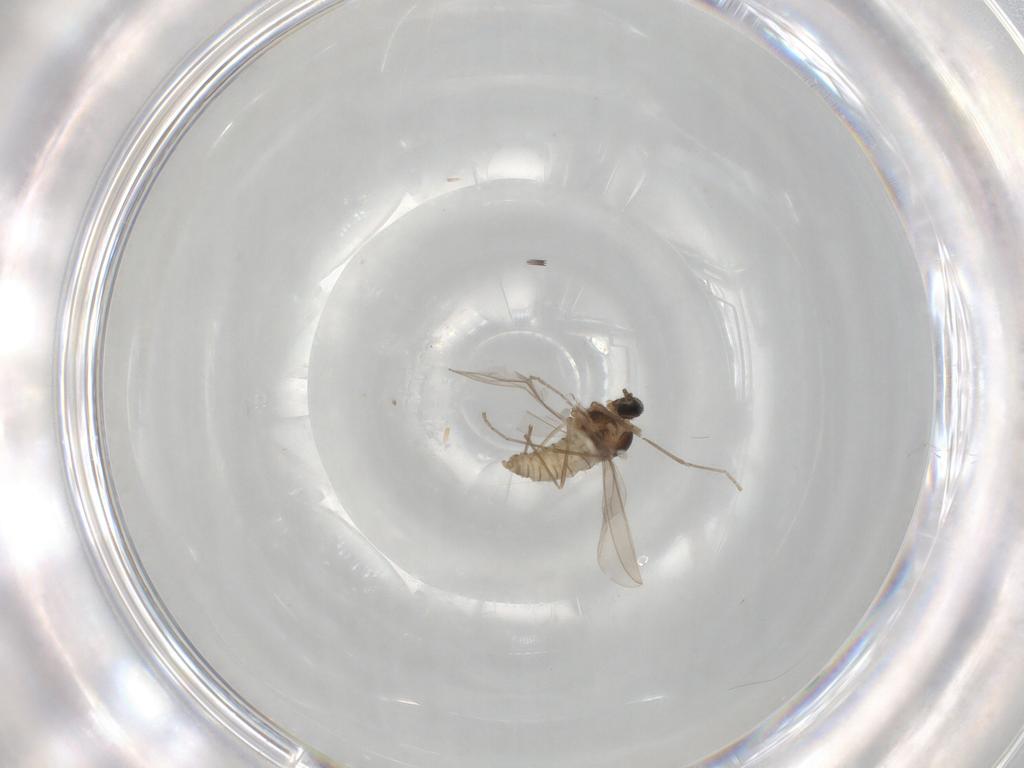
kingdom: Animalia
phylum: Arthropoda
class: Insecta
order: Diptera
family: Cecidomyiidae
